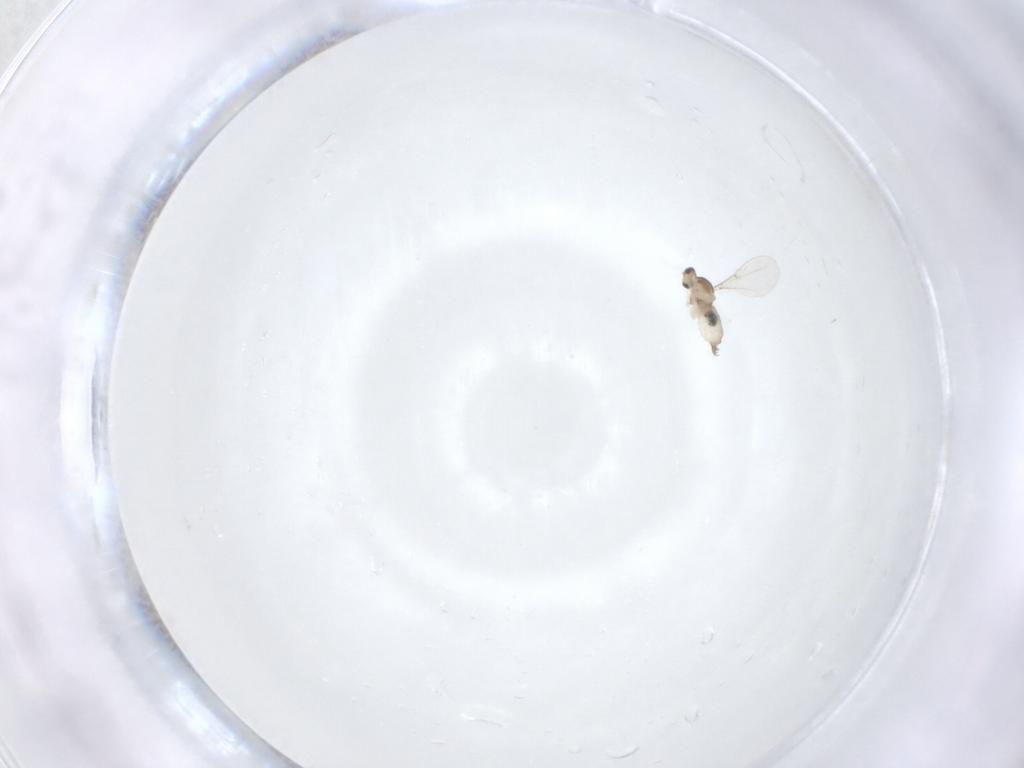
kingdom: Animalia
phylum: Arthropoda
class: Insecta
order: Diptera
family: Cecidomyiidae
